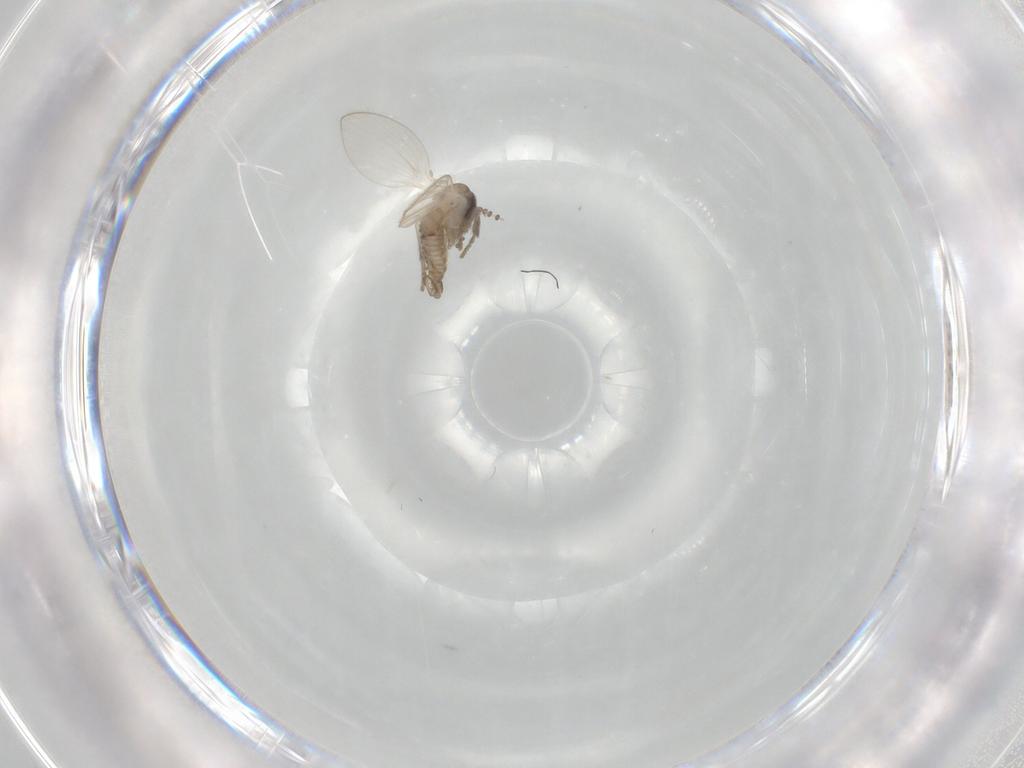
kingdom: Animalia
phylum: Arthropoda
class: Insecta
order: Diptera
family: Psychodidae
